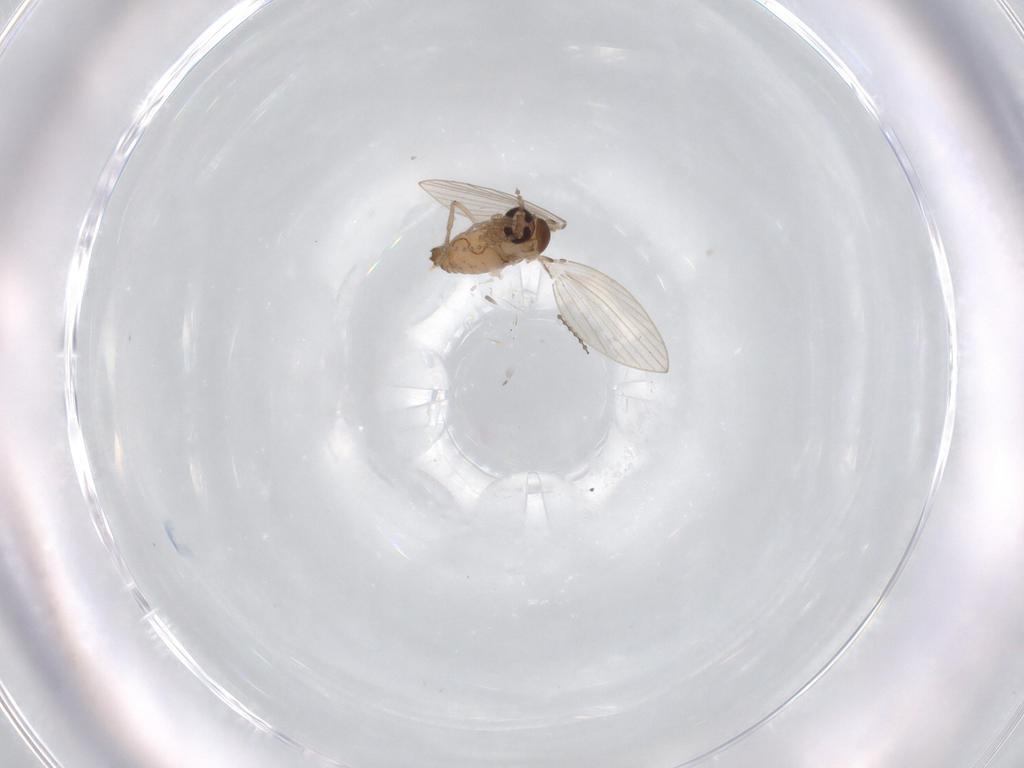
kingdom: Animalia
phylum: Arthropoda
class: Insecta
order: Diptera
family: Psychodidae
